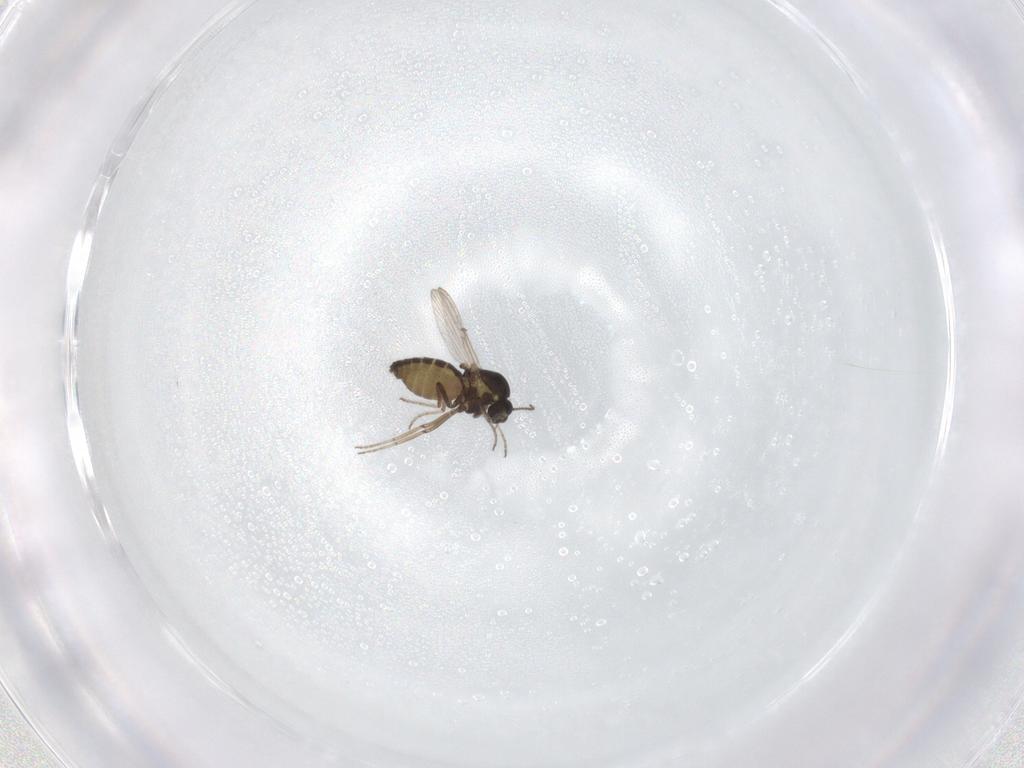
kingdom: Animalia
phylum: Arthropoda
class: Insecta
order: Diptera
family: Ceratopogonidae
